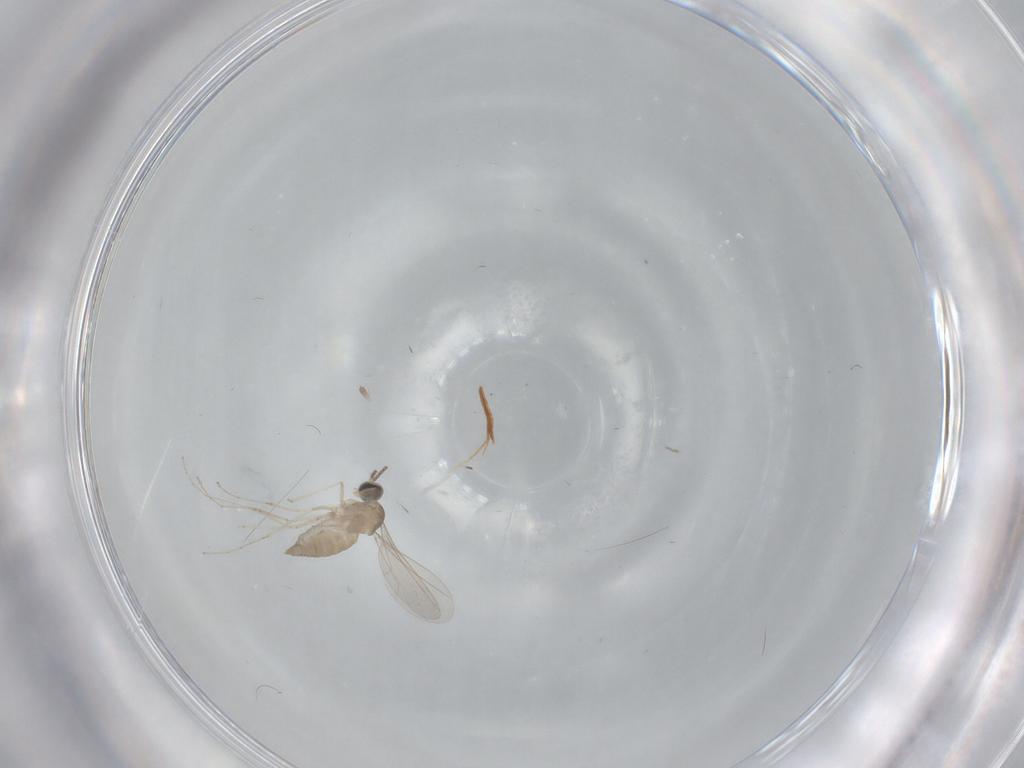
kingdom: Animalia
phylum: Arthropoda
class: Insecta
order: Diptera
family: Cecidomyiidae
